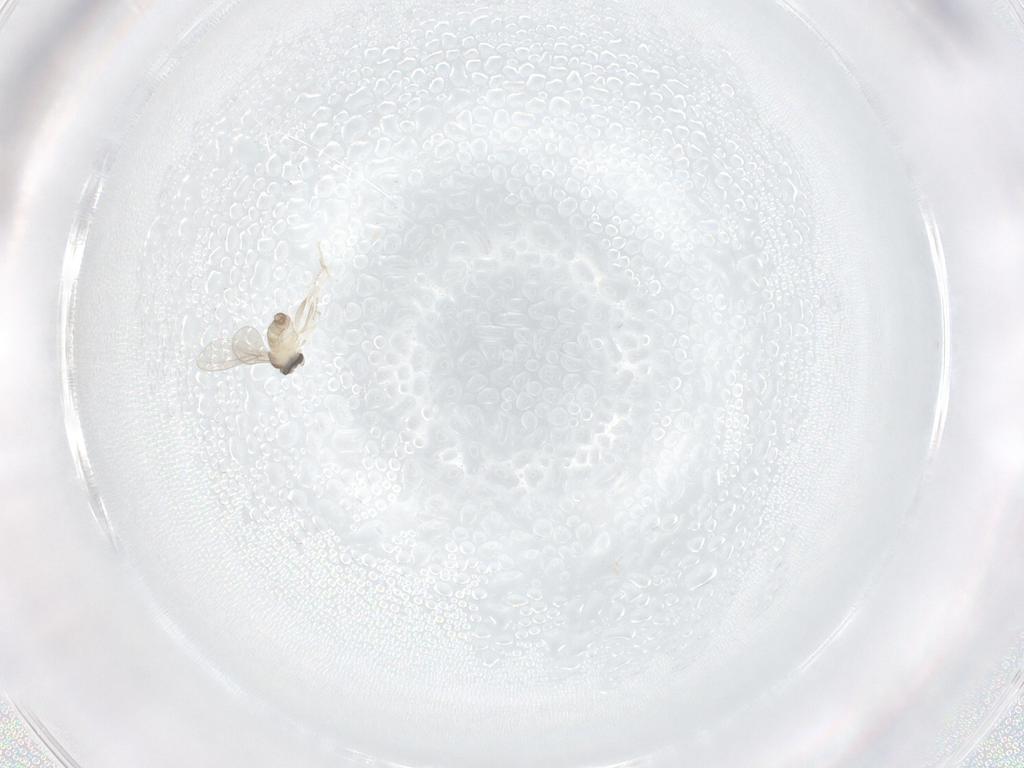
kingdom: Animalia
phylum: Arthropoda
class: Insecta
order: Diptera
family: Cecidomyiidae
